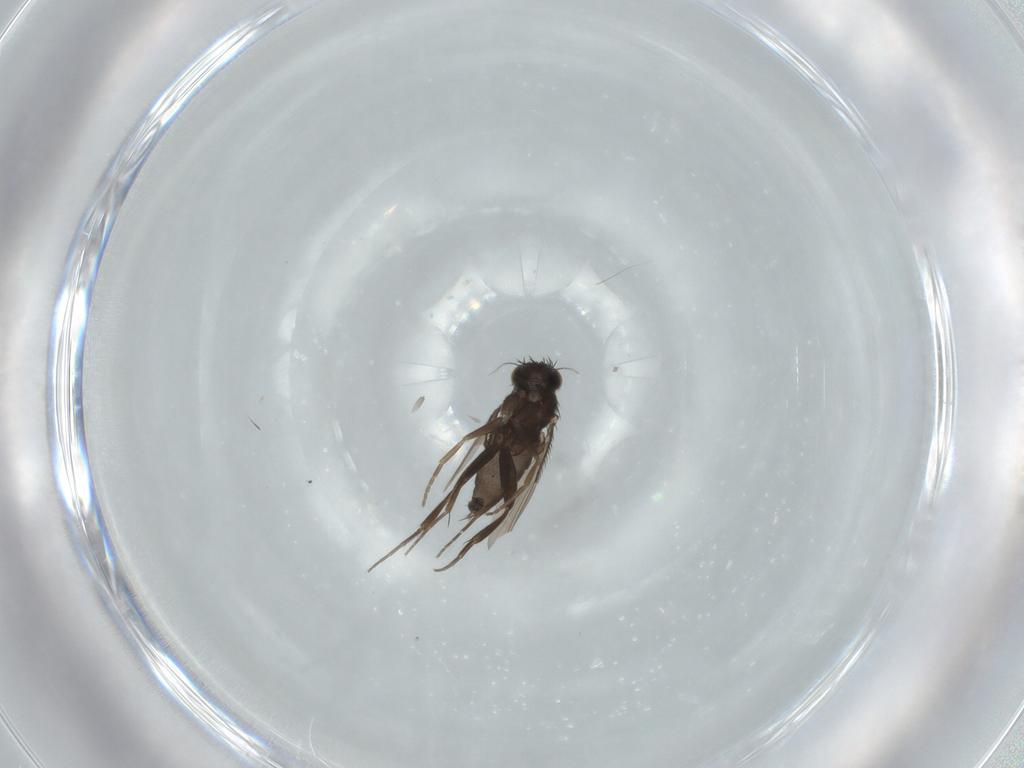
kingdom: Animalia
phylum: Arthropoda
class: Insecta
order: Diptera
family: Phoridae
